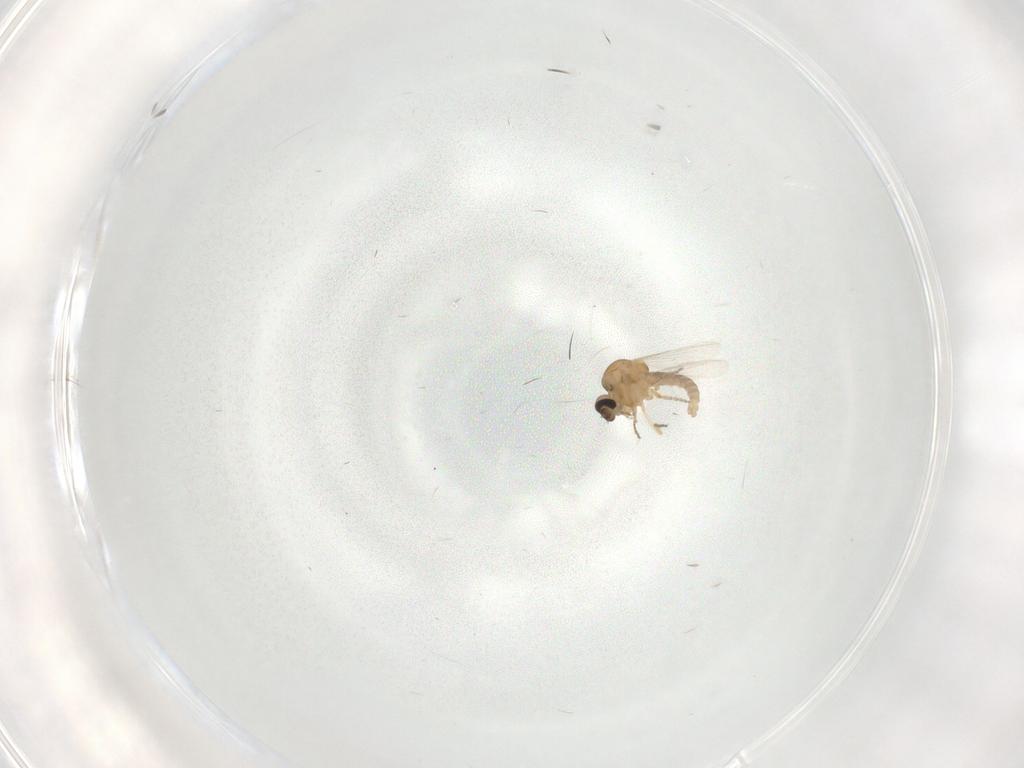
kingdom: Animalia
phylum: Arthropoda
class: Insecta
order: Diptera
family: Ceratopogonidae
